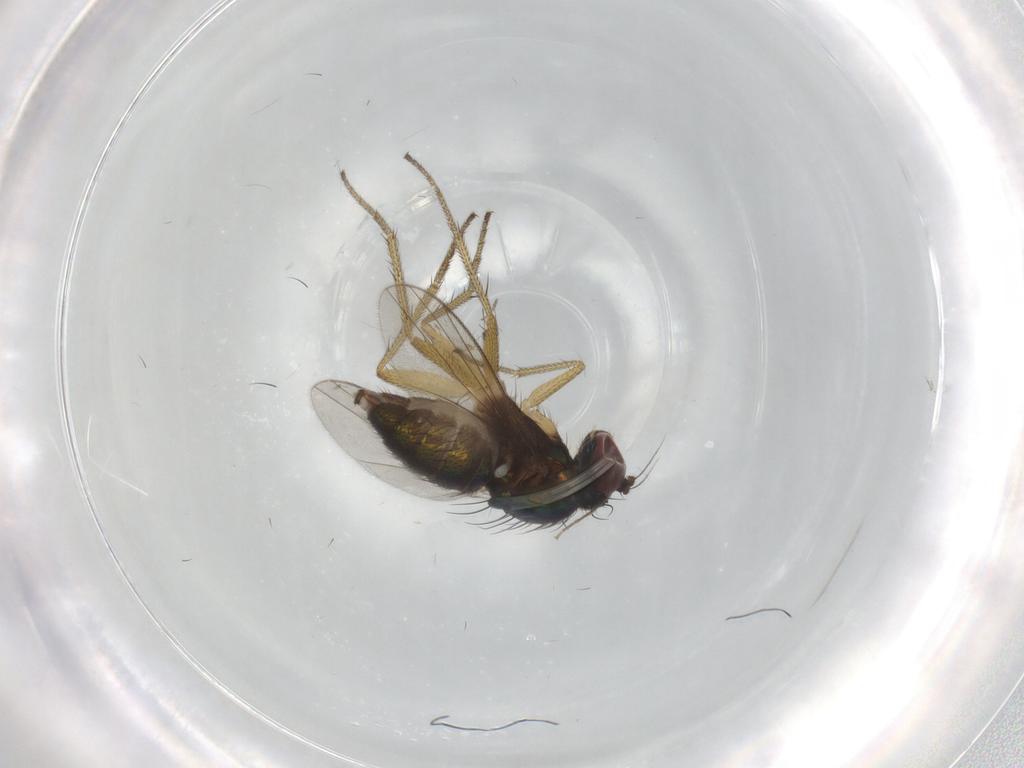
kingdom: Animalia
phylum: Arthropoda
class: Insecta
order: Diptera
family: Dolichopodidae
